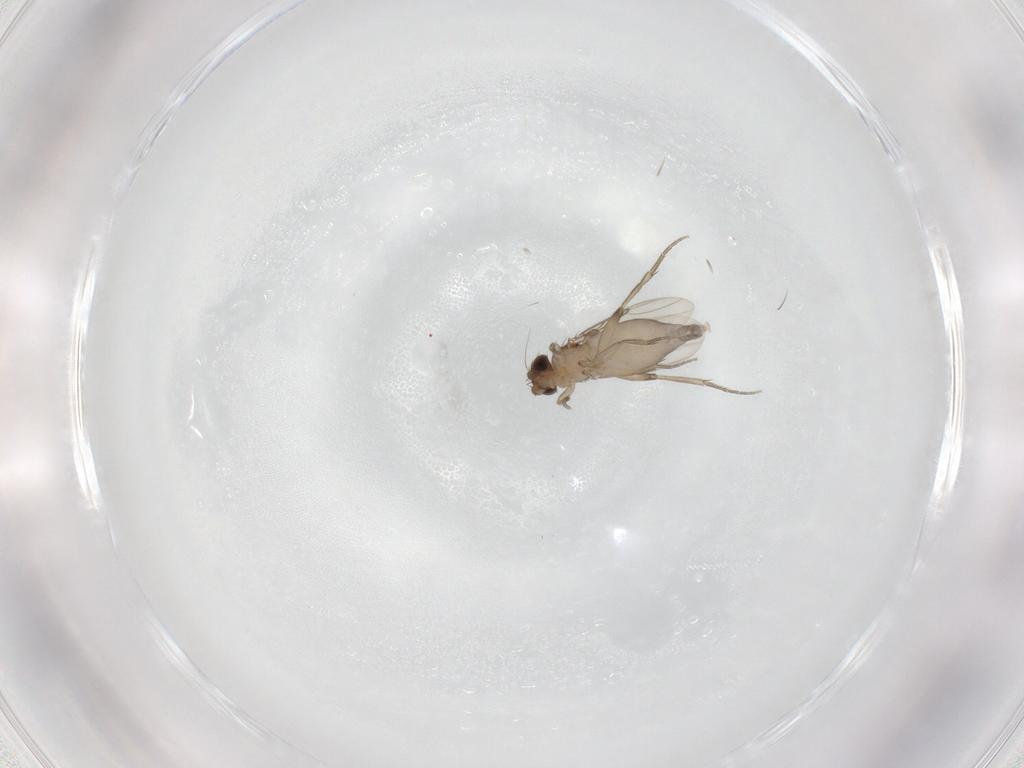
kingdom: Animalia
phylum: Arthropoda
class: Insecta
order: Diptera
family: Phoridae
